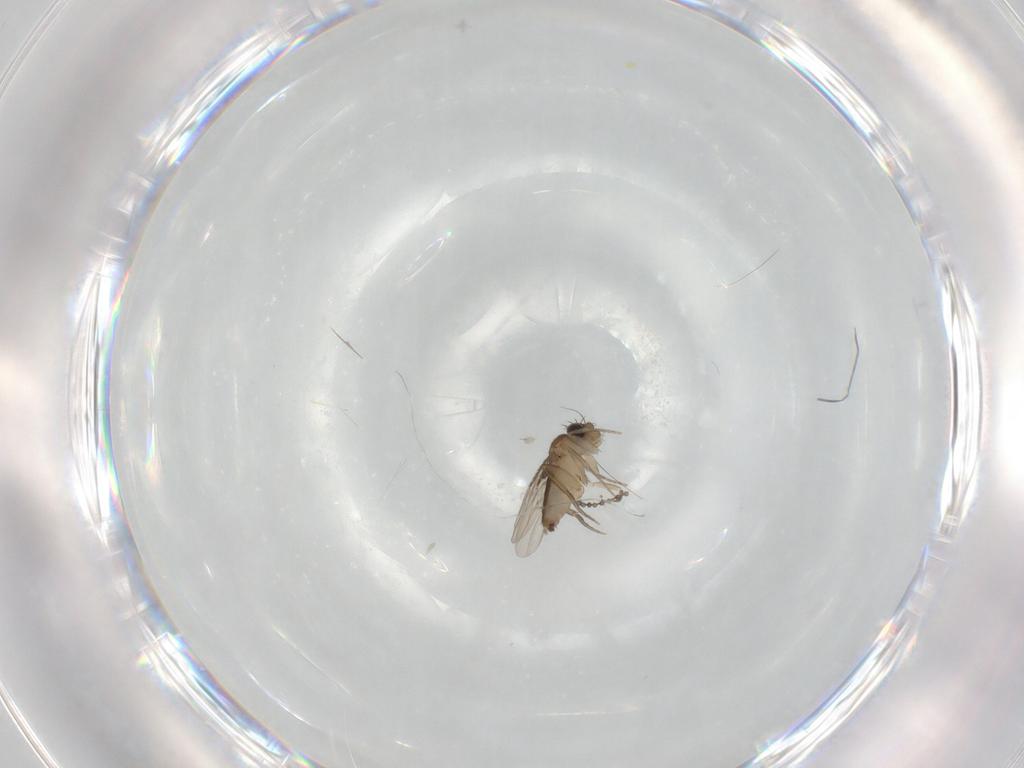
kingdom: Animalia
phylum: Arthropoda
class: Insecta
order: Diptera
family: Phoridae
